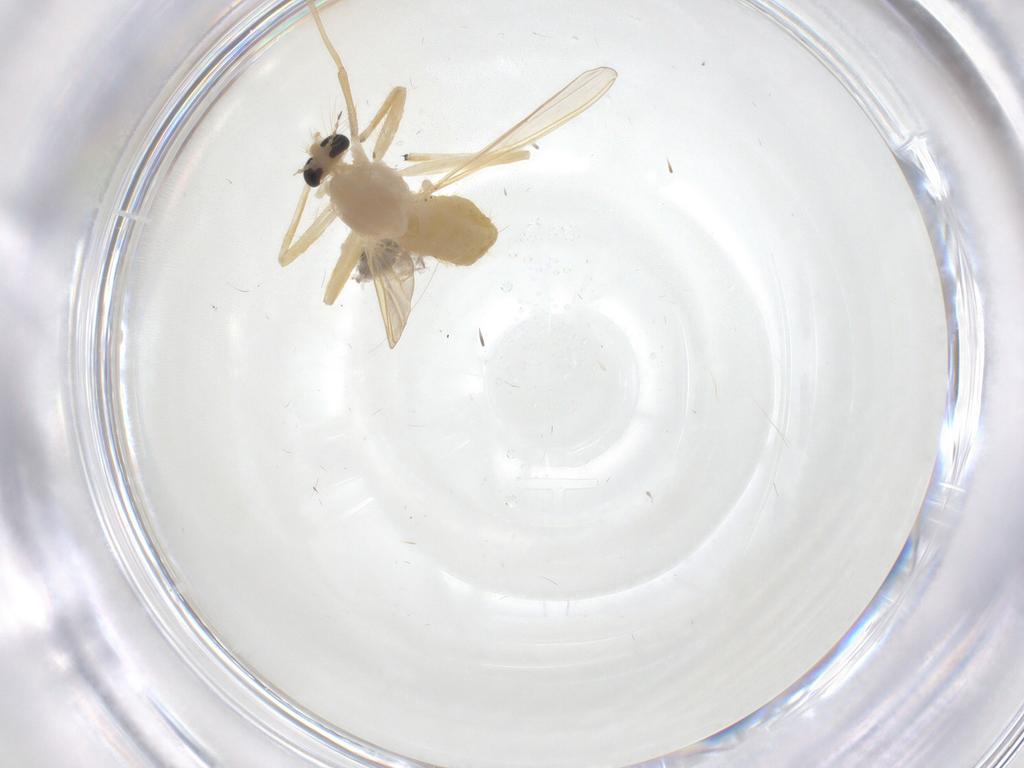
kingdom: Animalia
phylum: Arthropoda
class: Insecta
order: Diptera
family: Chironomidae
